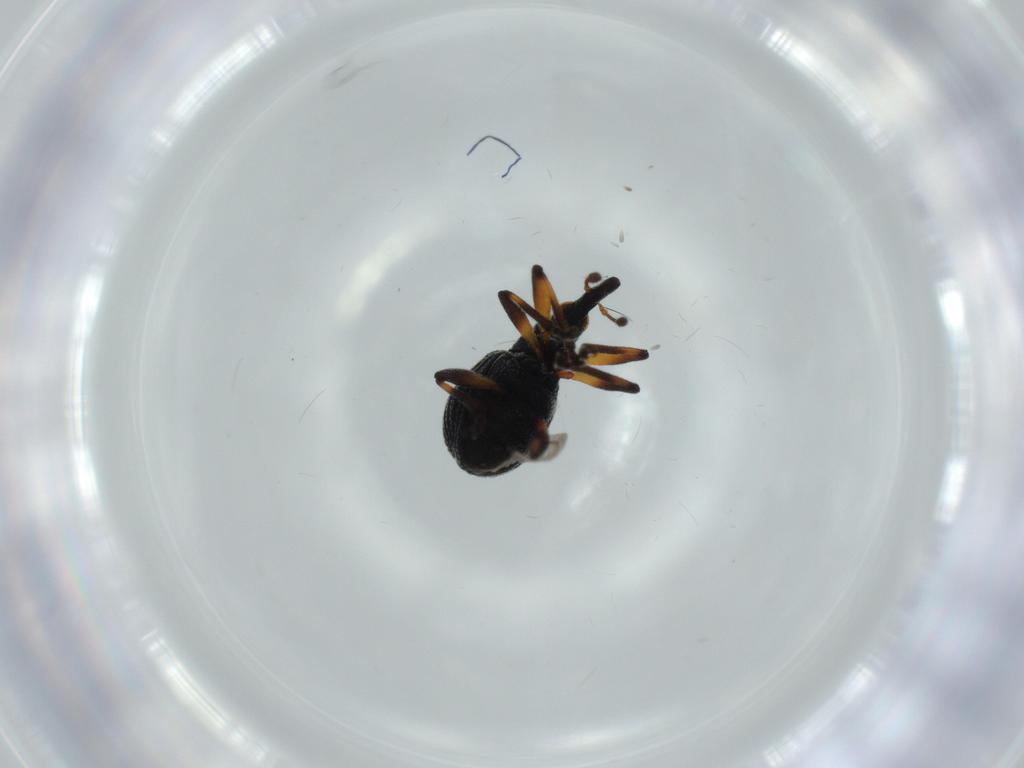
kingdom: Animalia
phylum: Arthropoda
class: Insecta
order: Coleoptera
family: Brentidae
